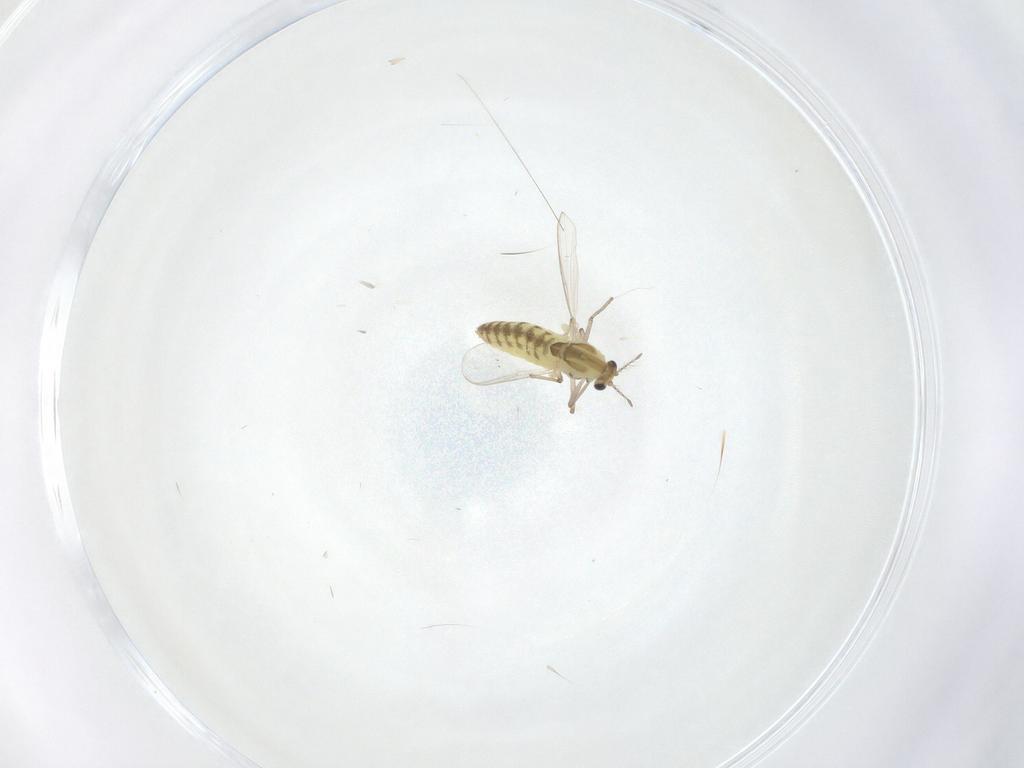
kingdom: Animalia
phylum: Arthropoda
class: Insecta
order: Diptera
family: Chironomidae
